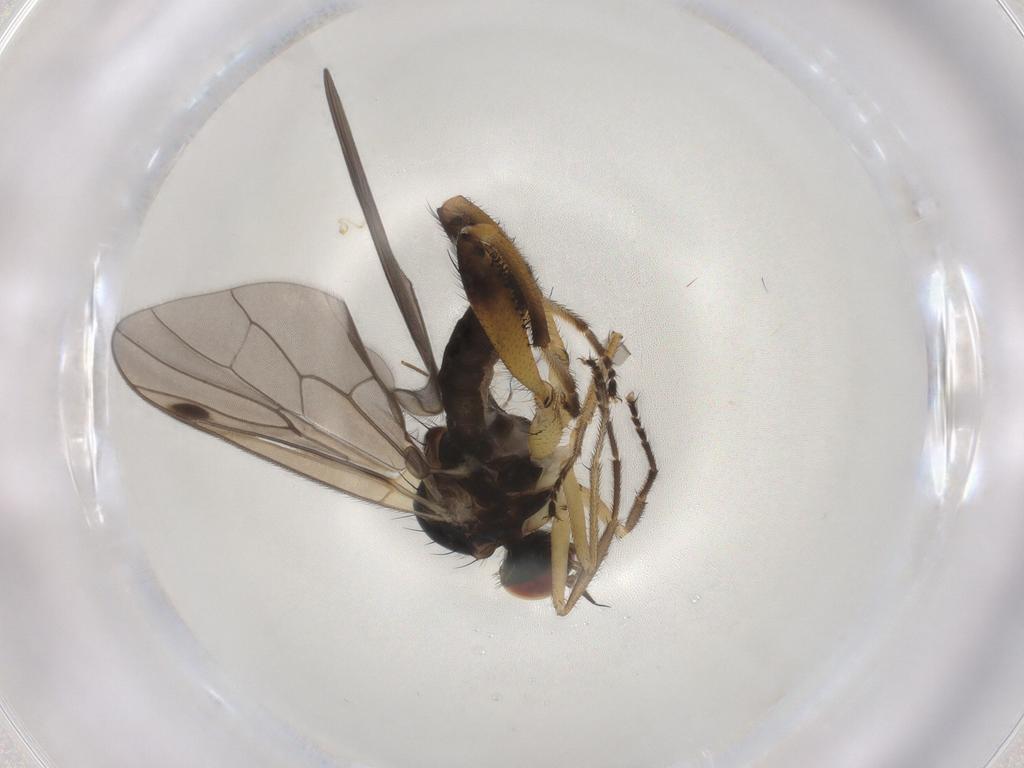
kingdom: Animalia
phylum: Arthropoda
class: Insecta
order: Diptera
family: Hybotidae
